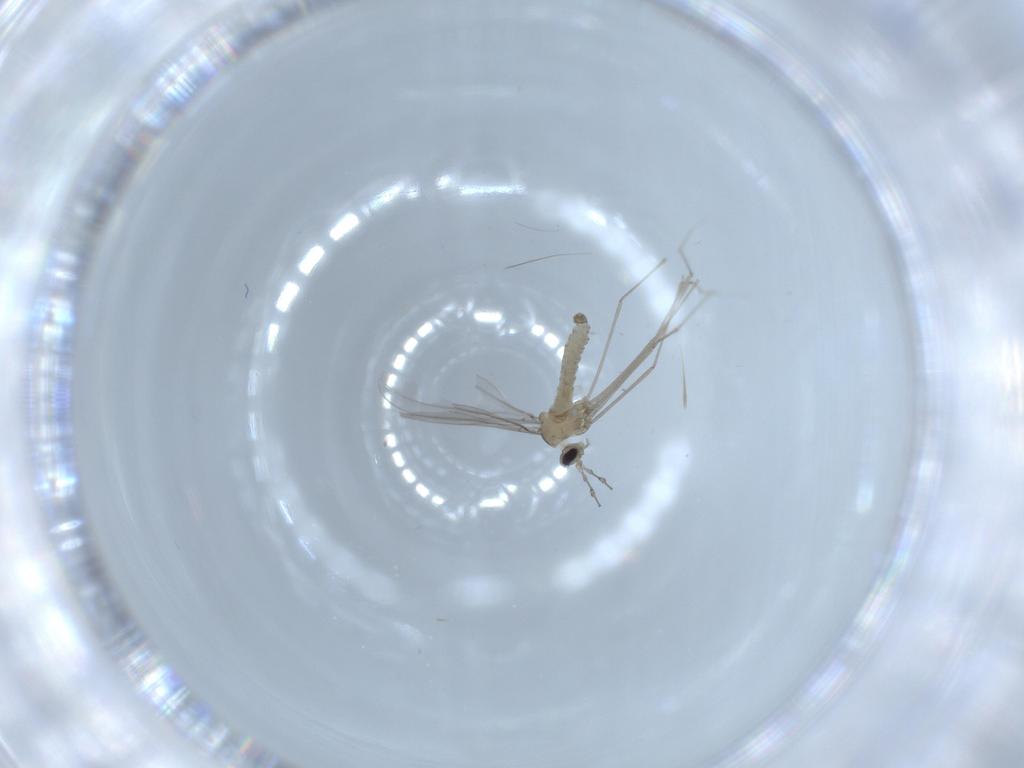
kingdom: Animalia
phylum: Arthropoda
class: Insecta
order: Diptera
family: Cecidomyiidae
